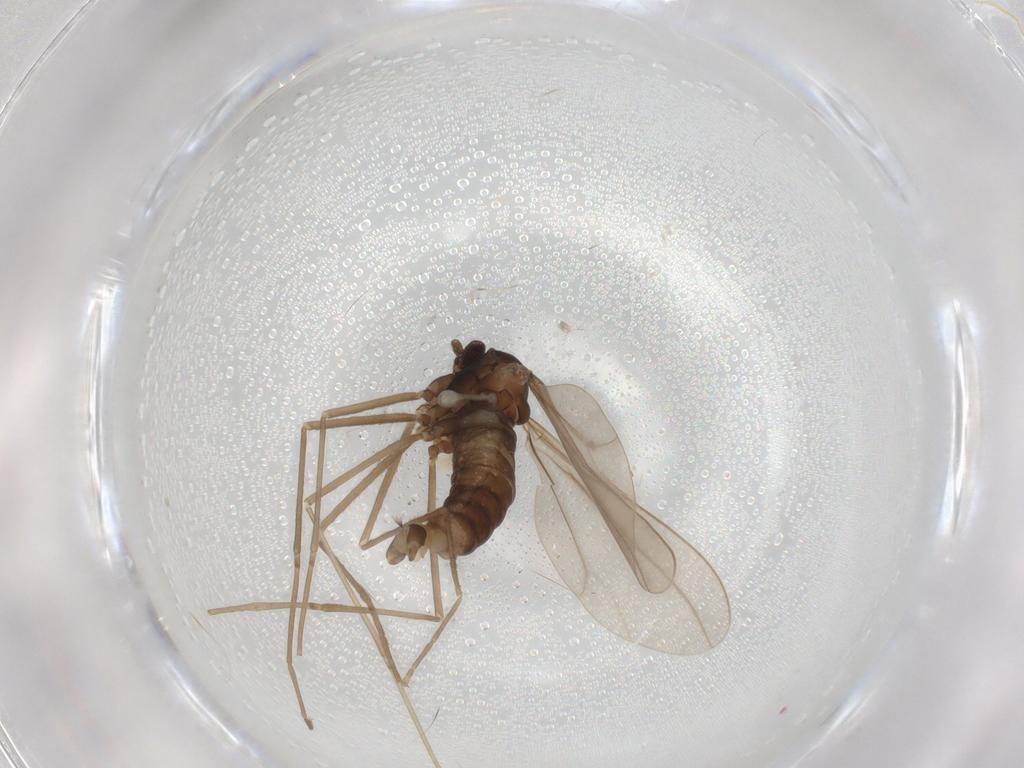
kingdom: Animalia
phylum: Arthropoda
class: Insecta
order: Diptera
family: Cecidomyiidae
